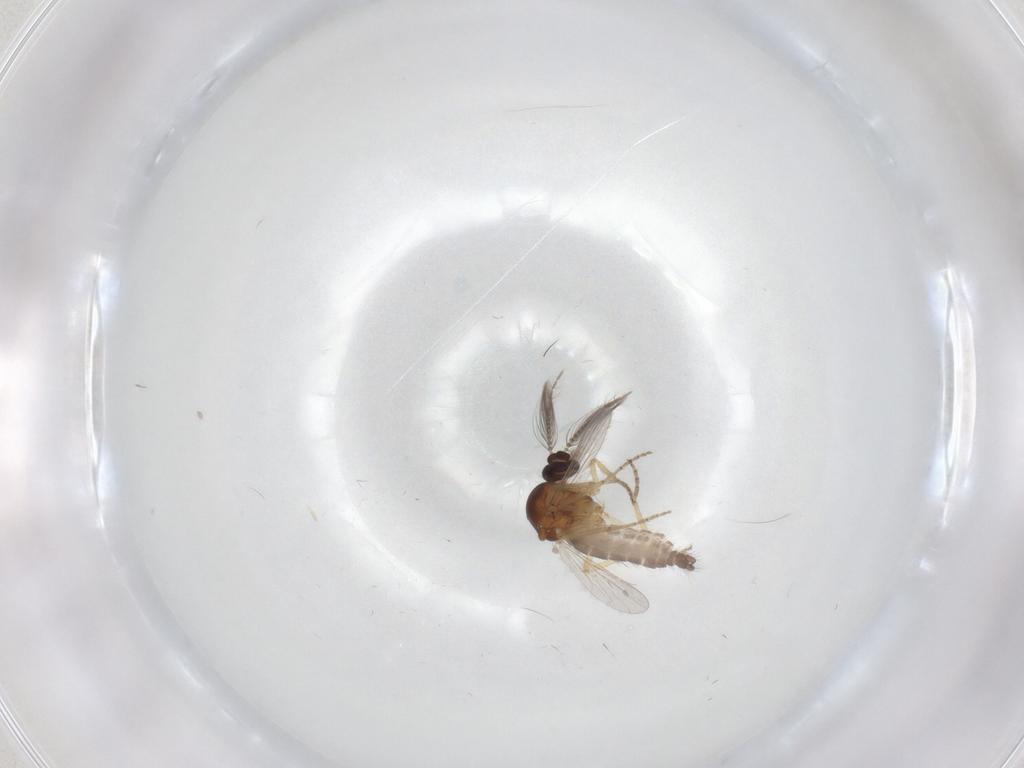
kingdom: Animalia
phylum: Arthropoda
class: Insecta
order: Diptera
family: Ceratopogonidae
